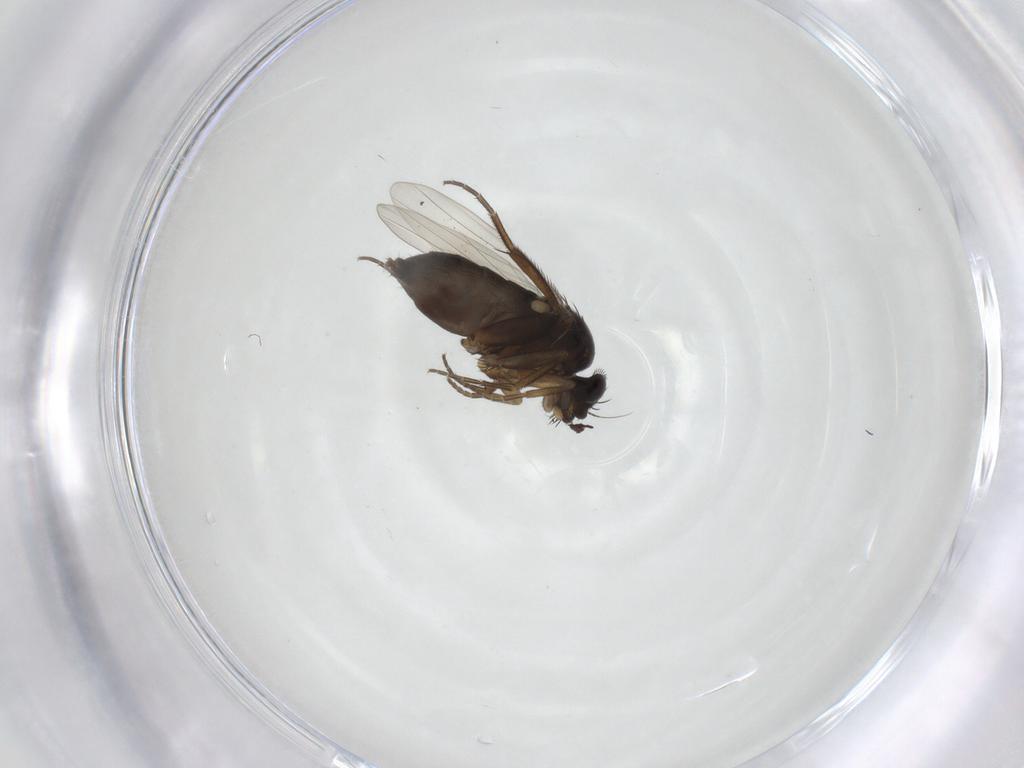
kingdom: Animalia
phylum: Arthropoda
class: Insecta
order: Diptera
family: Phoridae
